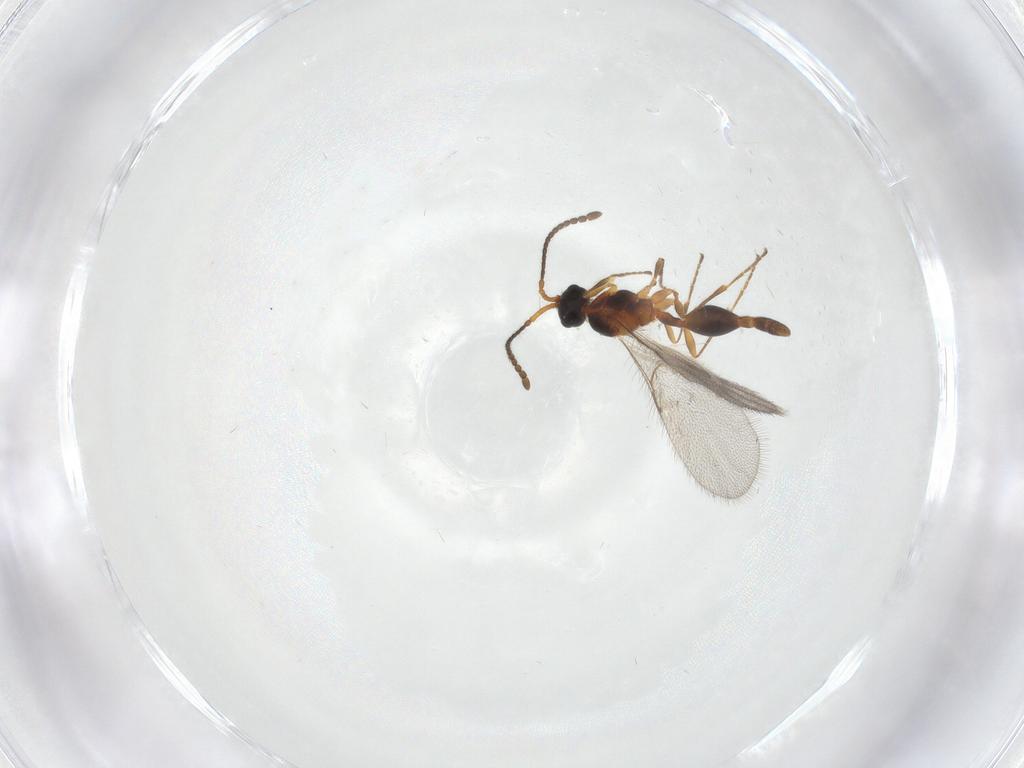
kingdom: Animalia
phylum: Arthropoda
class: Insecta
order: Hymenoptera
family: Diapriidae
